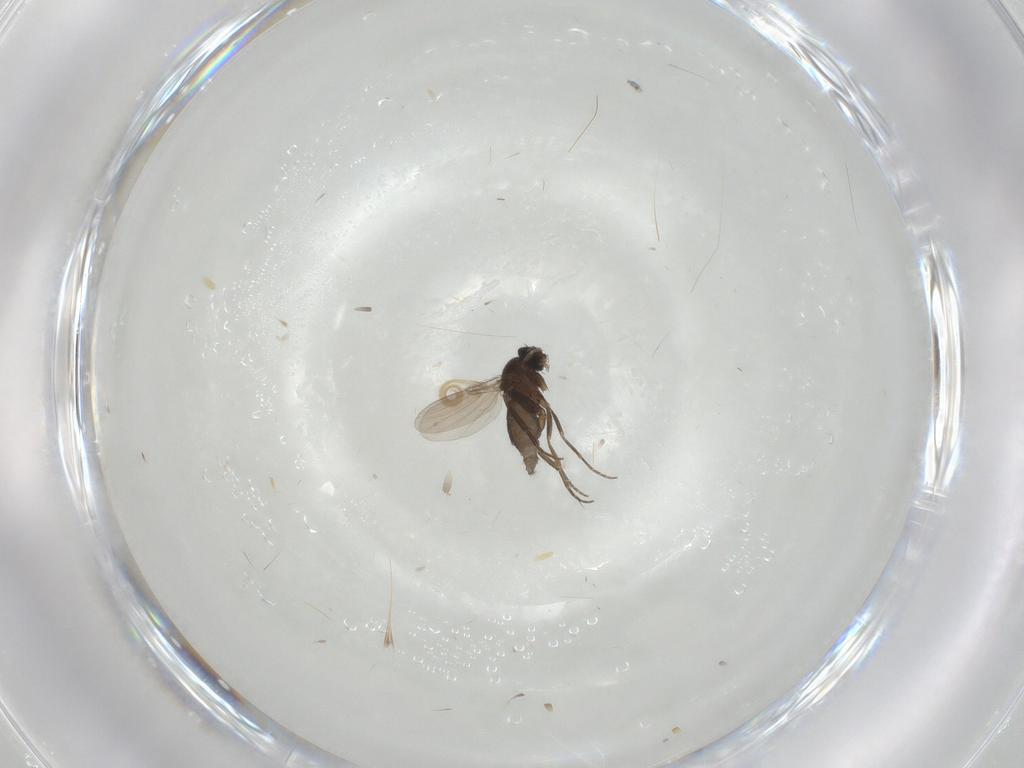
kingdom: Animalia
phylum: Arthropoda
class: Insecta
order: Diptera
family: Phoridae
